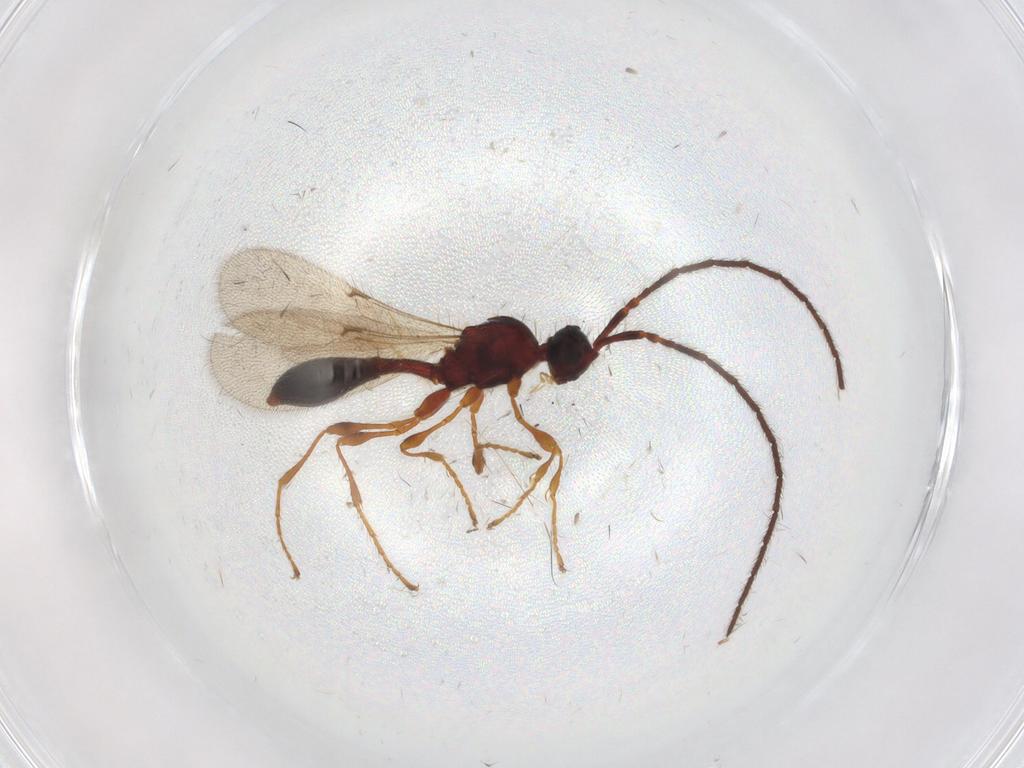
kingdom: Animalia
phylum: Arthropoda
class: Insecta
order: Hymenoptera
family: Diapriidae
